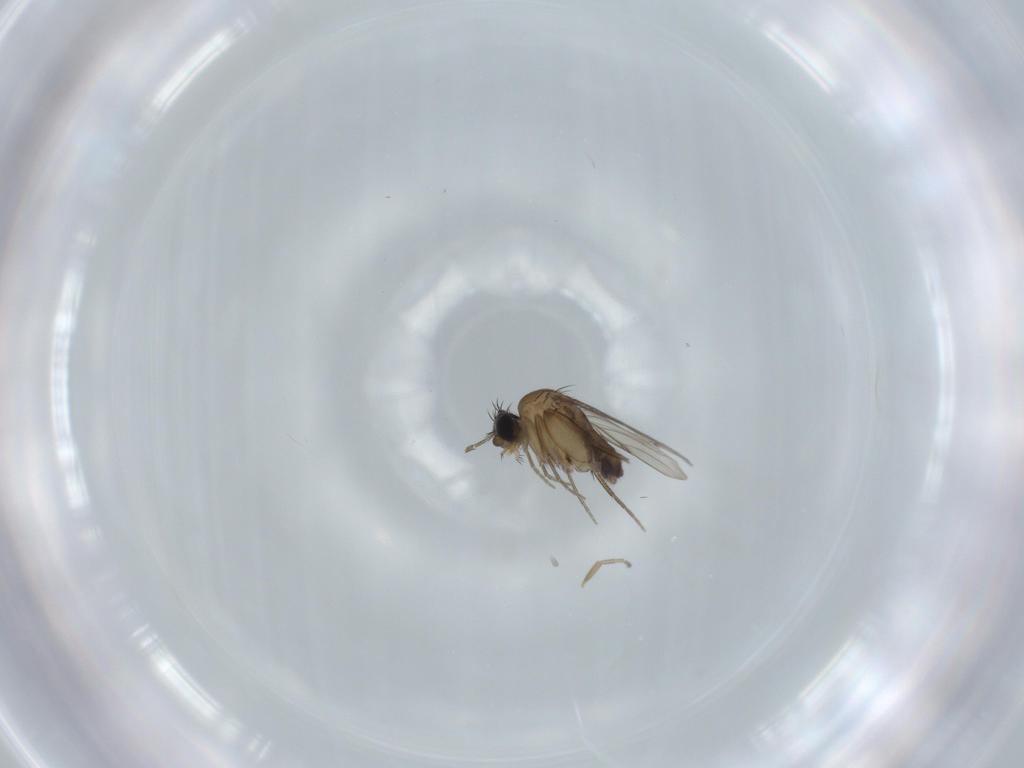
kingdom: Animalia
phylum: Arthropoda
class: Insecta
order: Diptera
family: Phoridae
